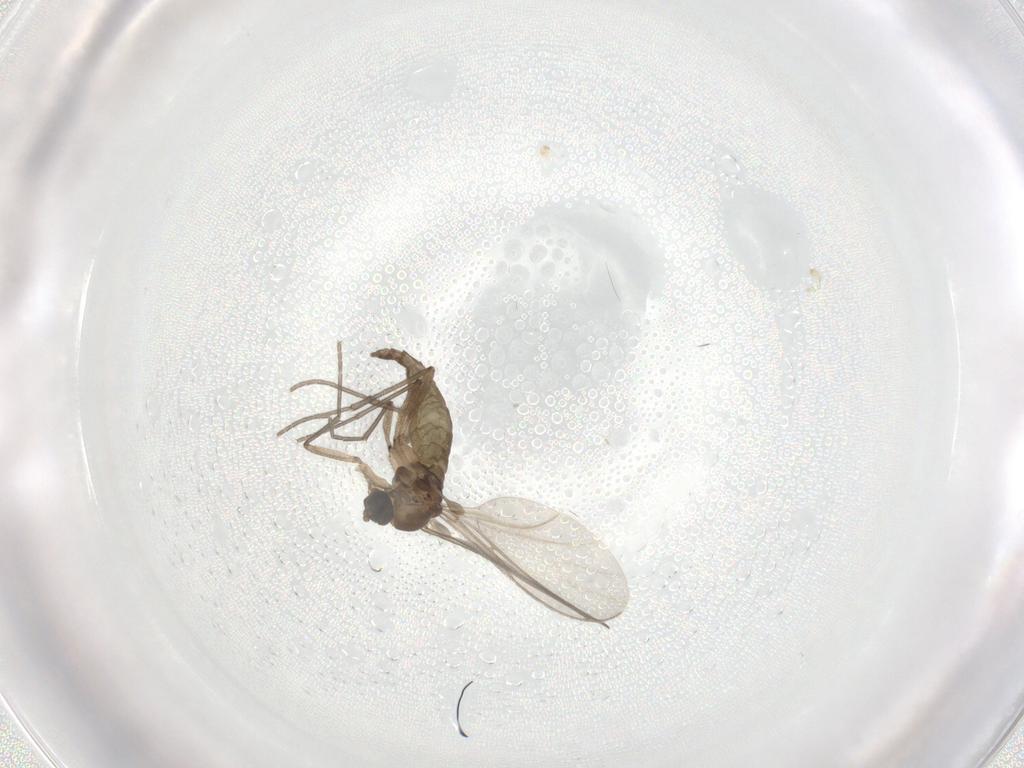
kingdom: Animalia
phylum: Arthropoda
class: Insecta
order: Diptera
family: Sciaridae
